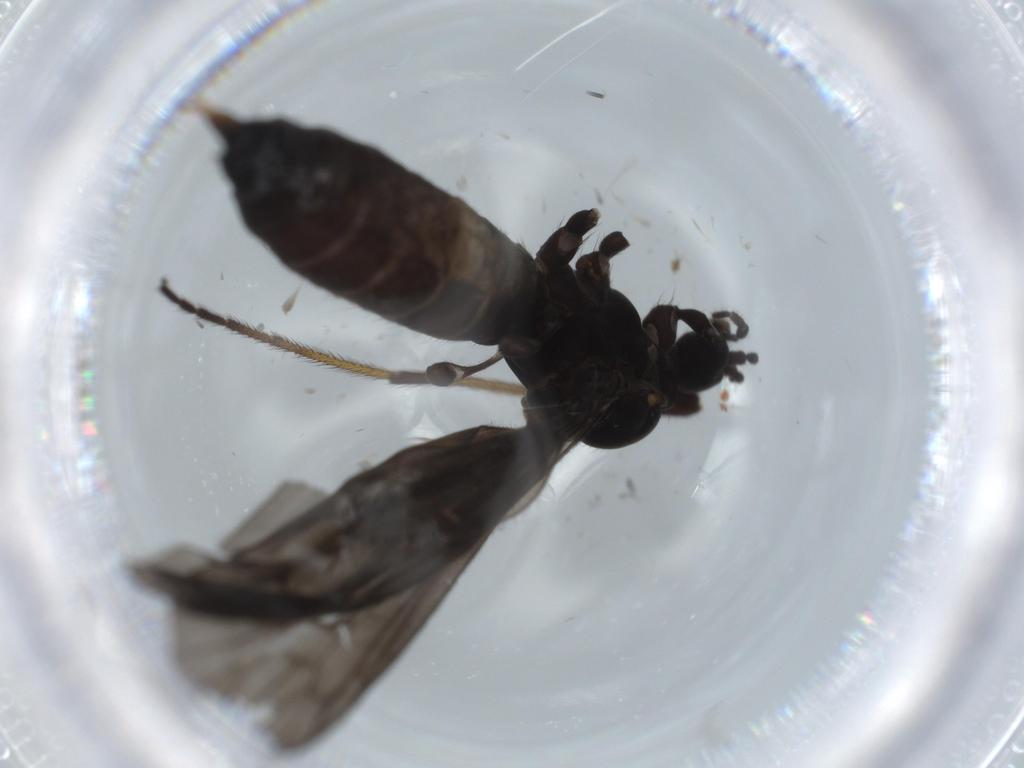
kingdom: Animalia
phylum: Arthropoda
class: Insecta
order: Diptera
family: Limoniidae
